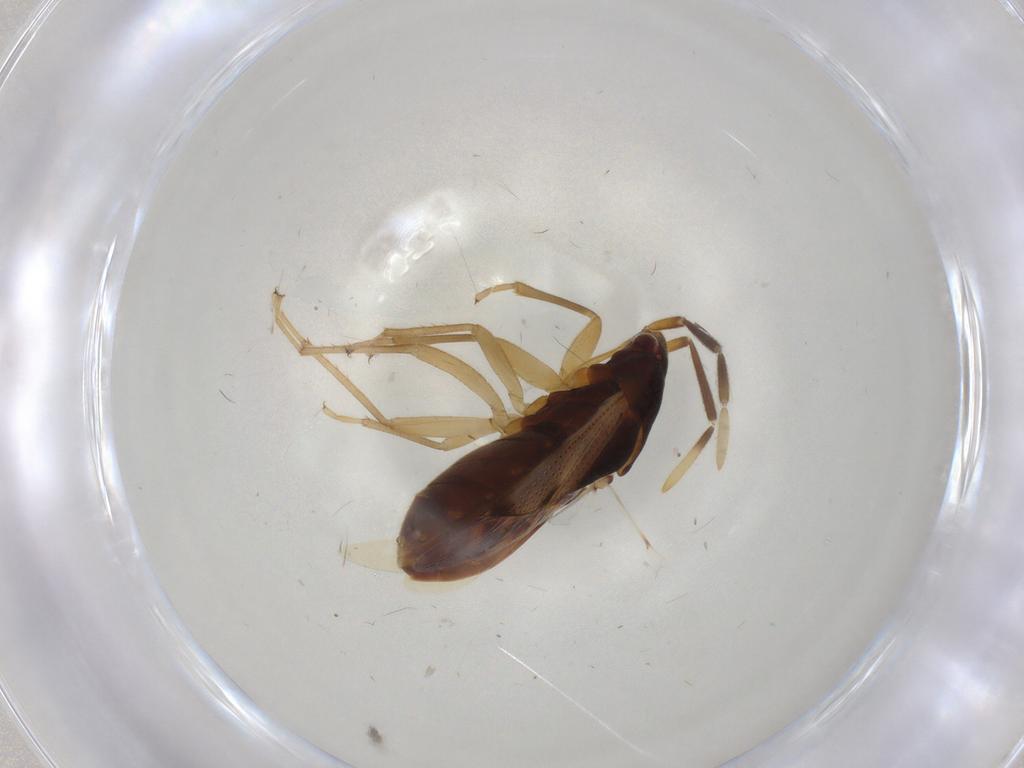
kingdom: Animalia
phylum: Arthropoda
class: Insecta
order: Hemiptera
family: Rhyparochromidae
